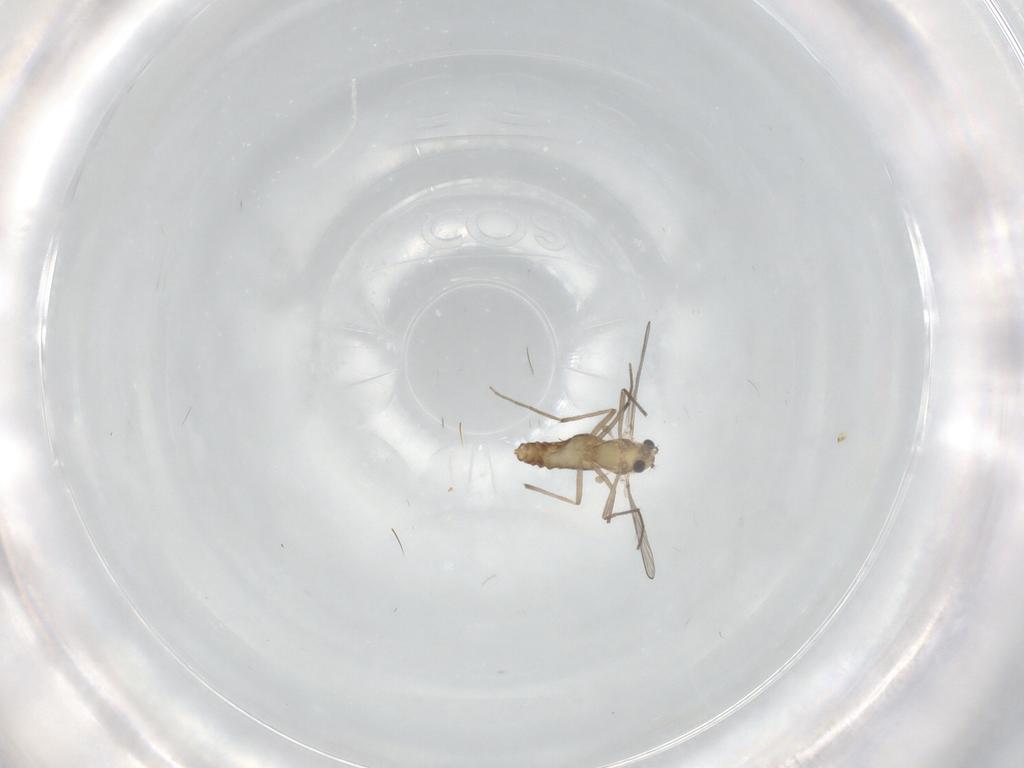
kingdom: Animalia
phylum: Arthropoda
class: Insecta
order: Diptera
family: Chironomidae
